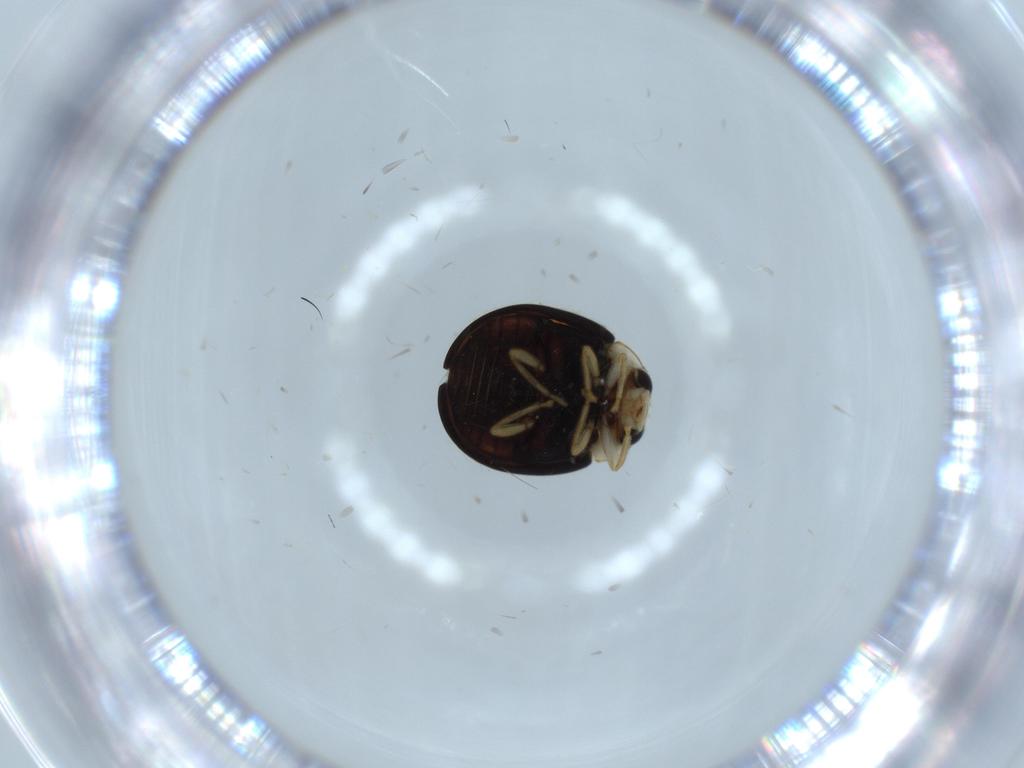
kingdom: Animalia
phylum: Arthropoda
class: Insecta
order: Coleoptera
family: Coccinellidae
